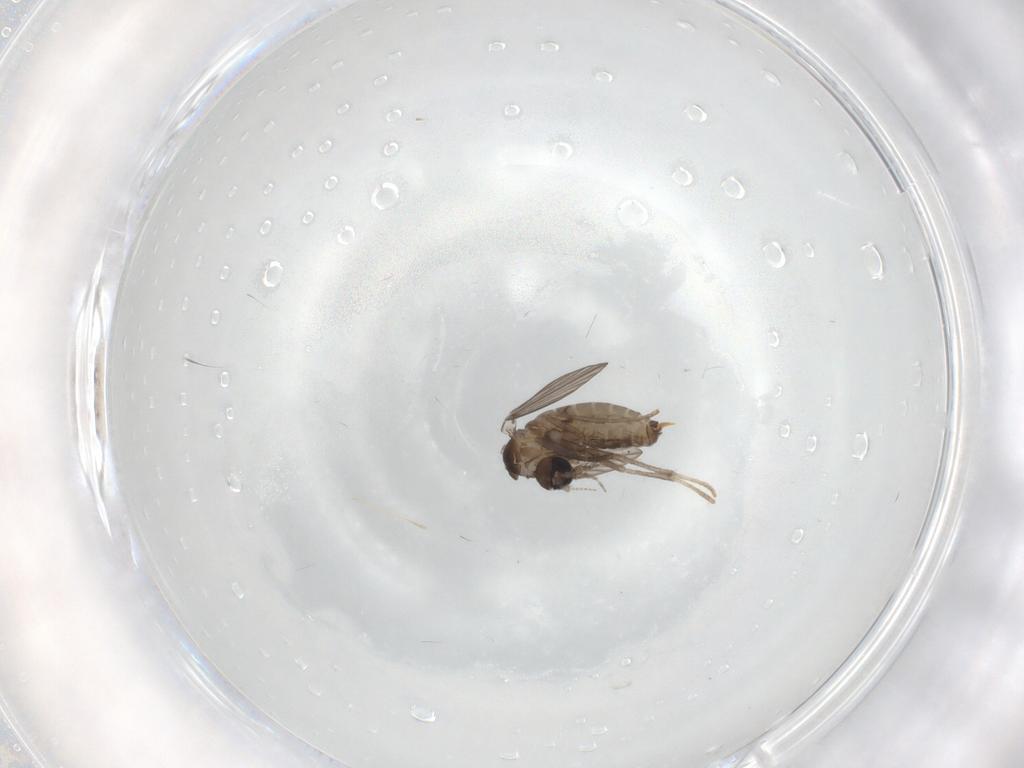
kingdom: Animalia
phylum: Arthropoda
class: Insecta
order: Diptera
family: Psychodidae
